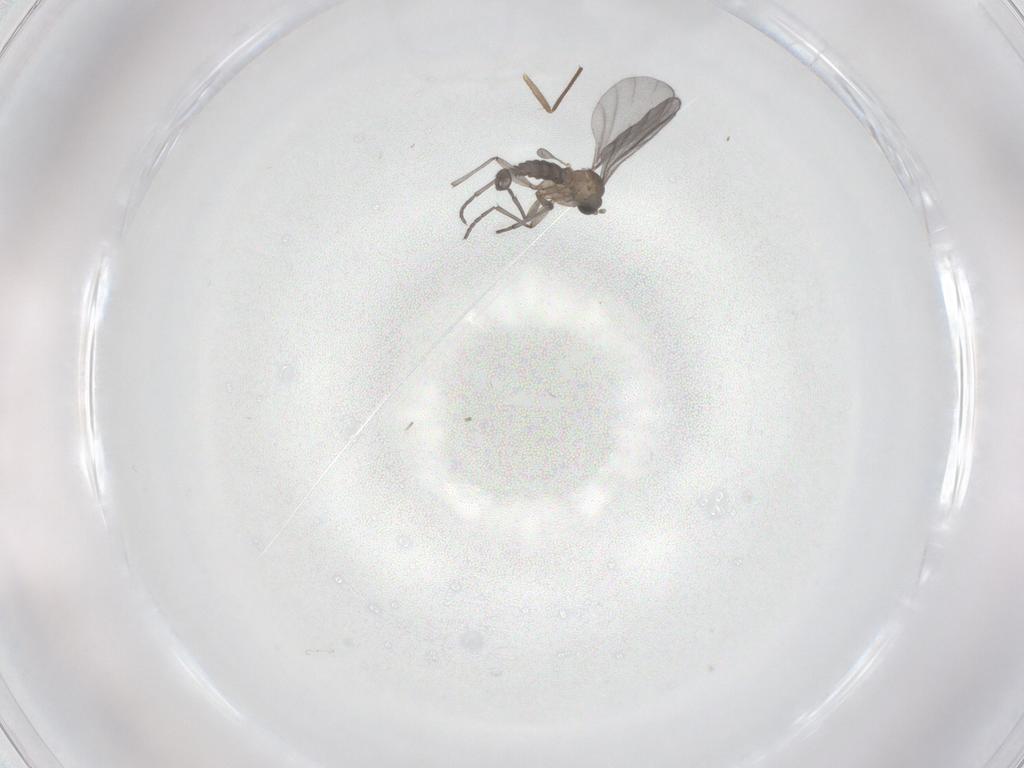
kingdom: Animalia
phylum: Arthropoda
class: Insecta
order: Diptera
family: Sciaridae
